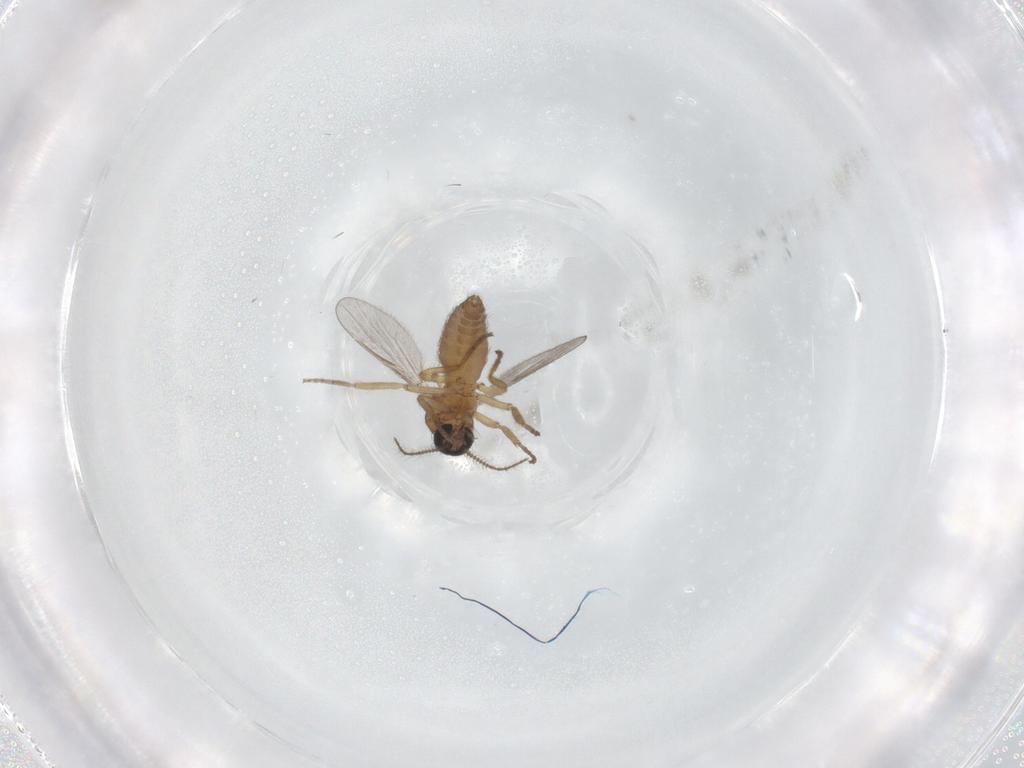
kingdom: Animalia
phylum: Arthropoda
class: Insecta
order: Diptera
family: Ceratopogonidae
